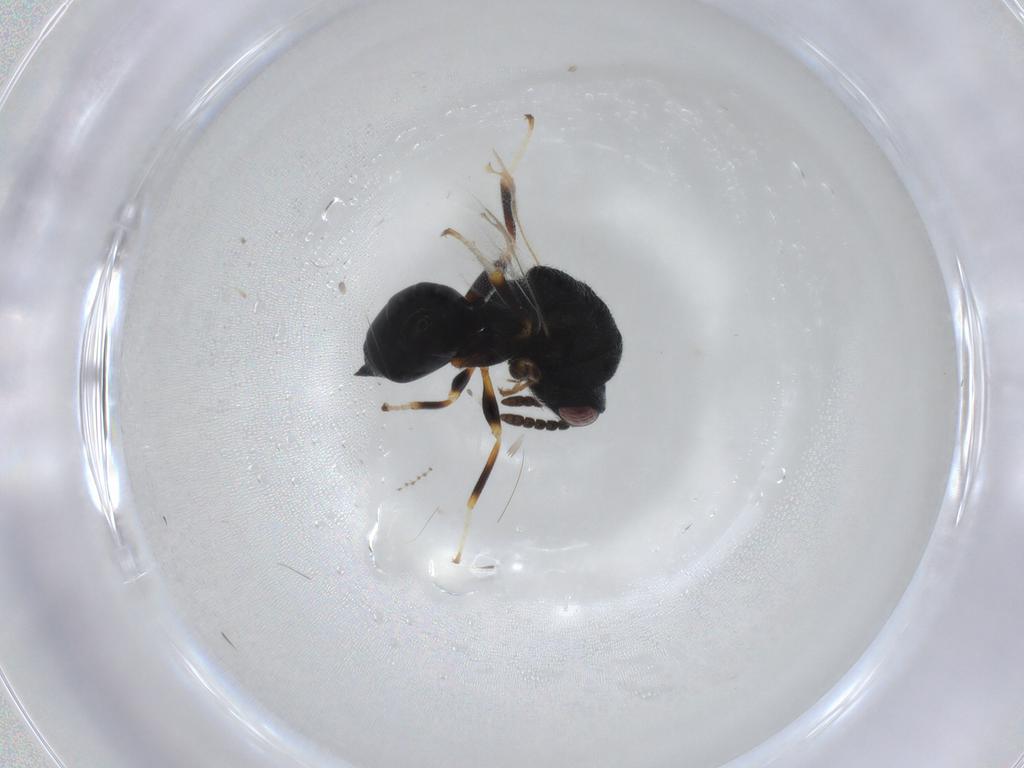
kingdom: Animalia
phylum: Arthropoda
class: Insecta
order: Hymenoptera
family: Eurytomidae
